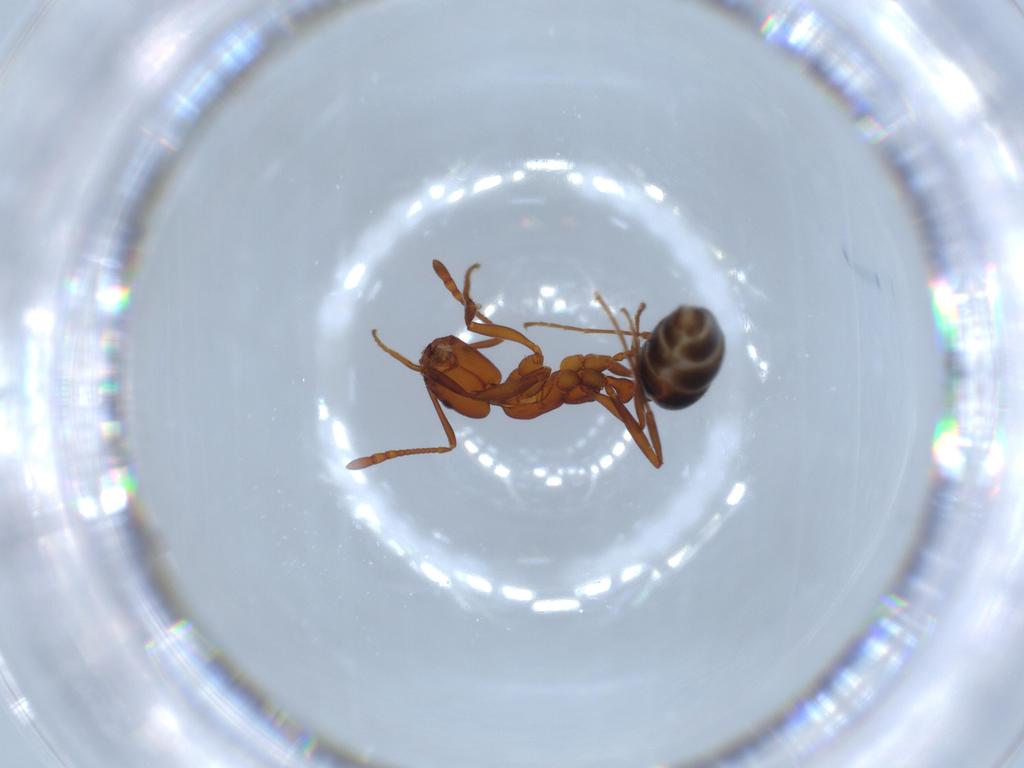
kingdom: Animalia
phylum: Arthropoda
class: Insecta
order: Hymenoptera
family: Formicidae
